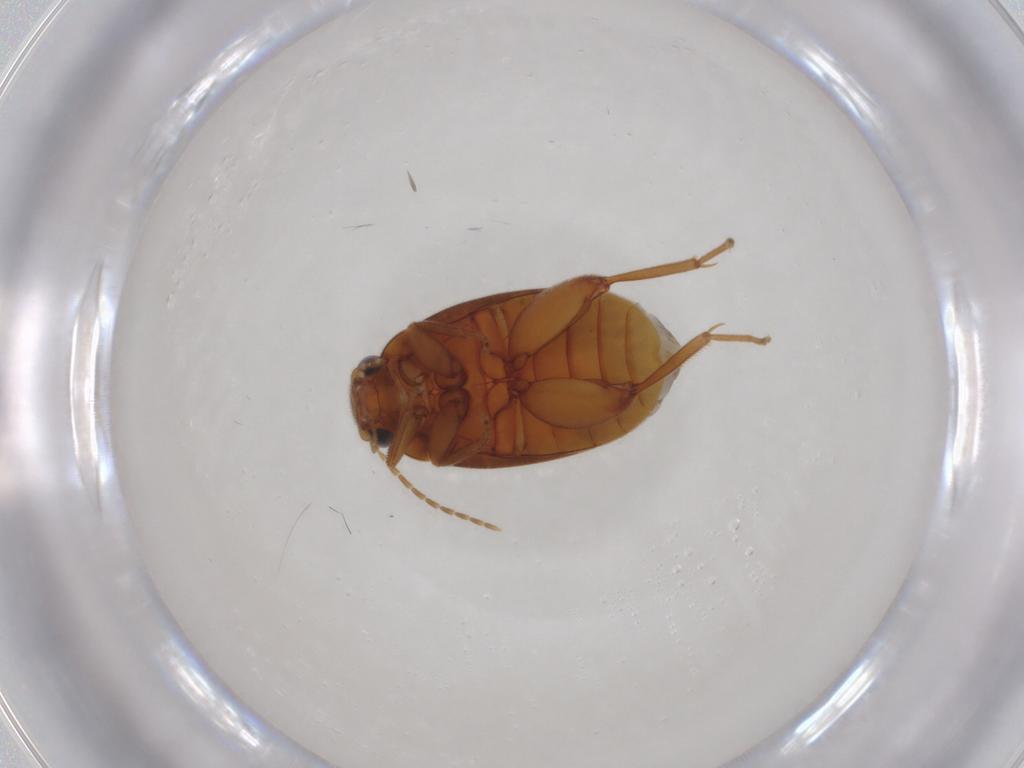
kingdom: Animalia
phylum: Arthropoda
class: Insecta
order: Coleoptera
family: Scirtidae
